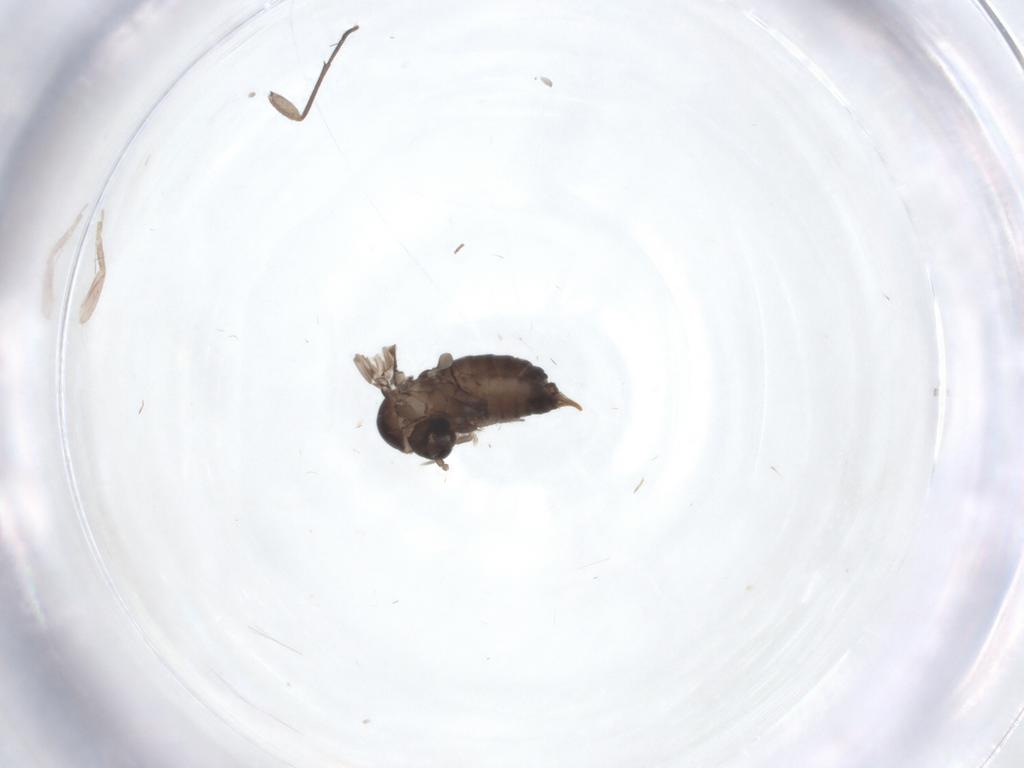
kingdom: Animalia
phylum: Arthropoda
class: Insecta
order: Diptera
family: Psychodidae
